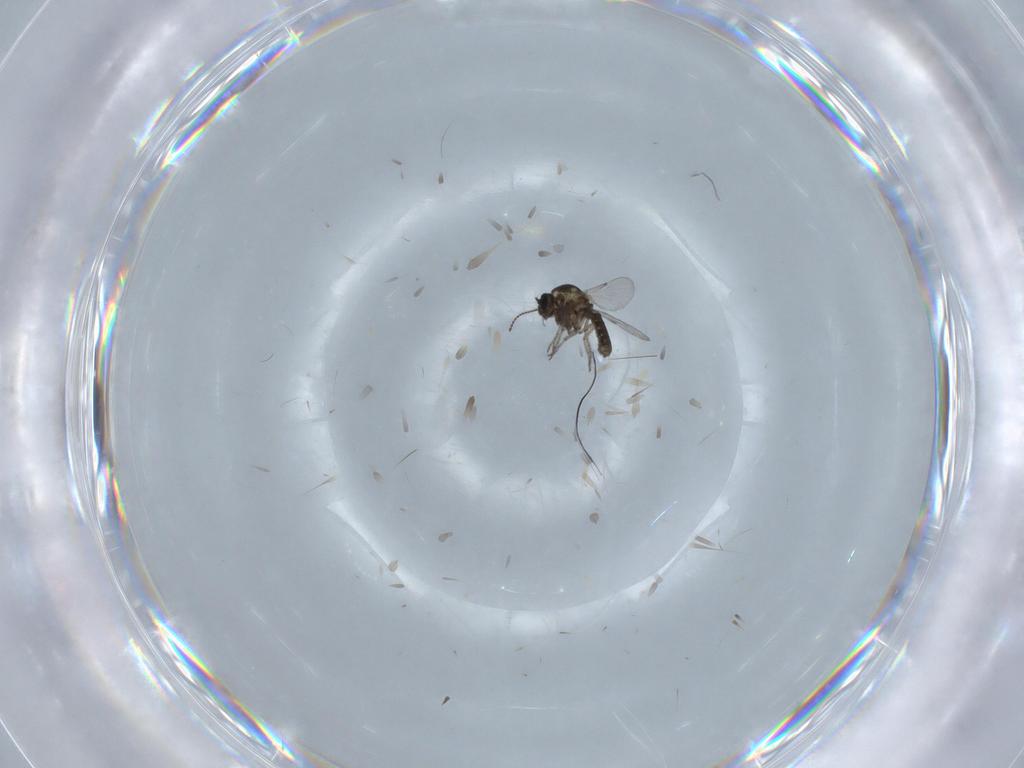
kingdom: Animalia
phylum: Arthropoda
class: Insecta
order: Diptera
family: Ceratopogonidae
